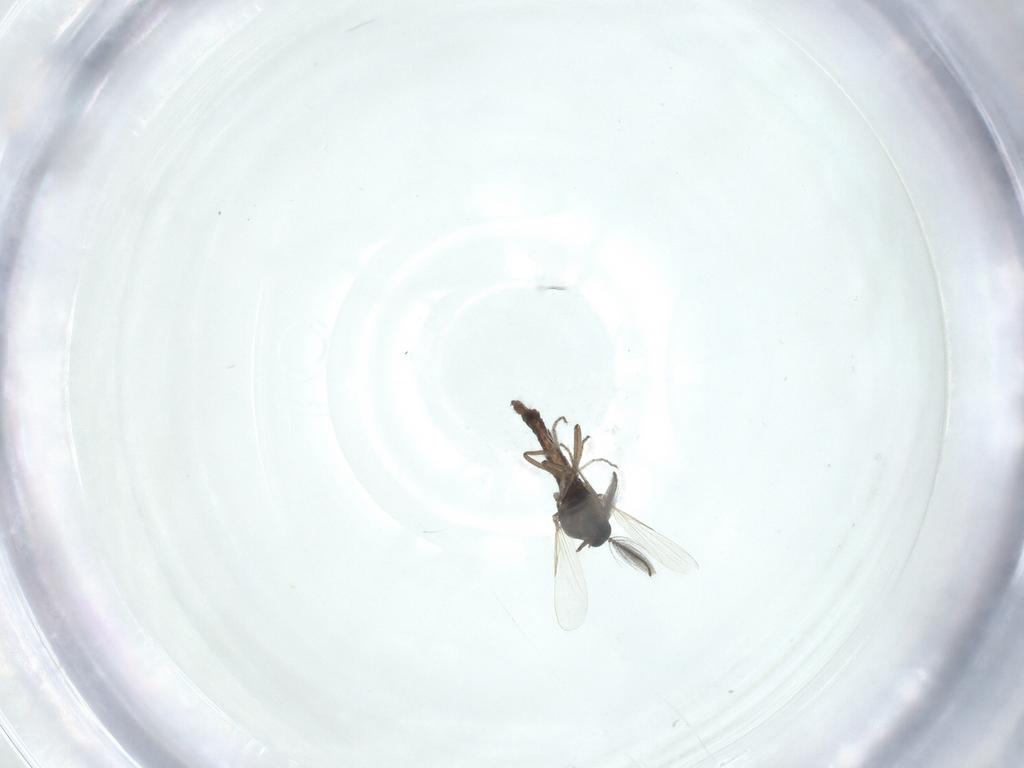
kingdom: Animalia
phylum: Arthropoda
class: Insecta
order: Diptera
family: Ceratopogonidae
